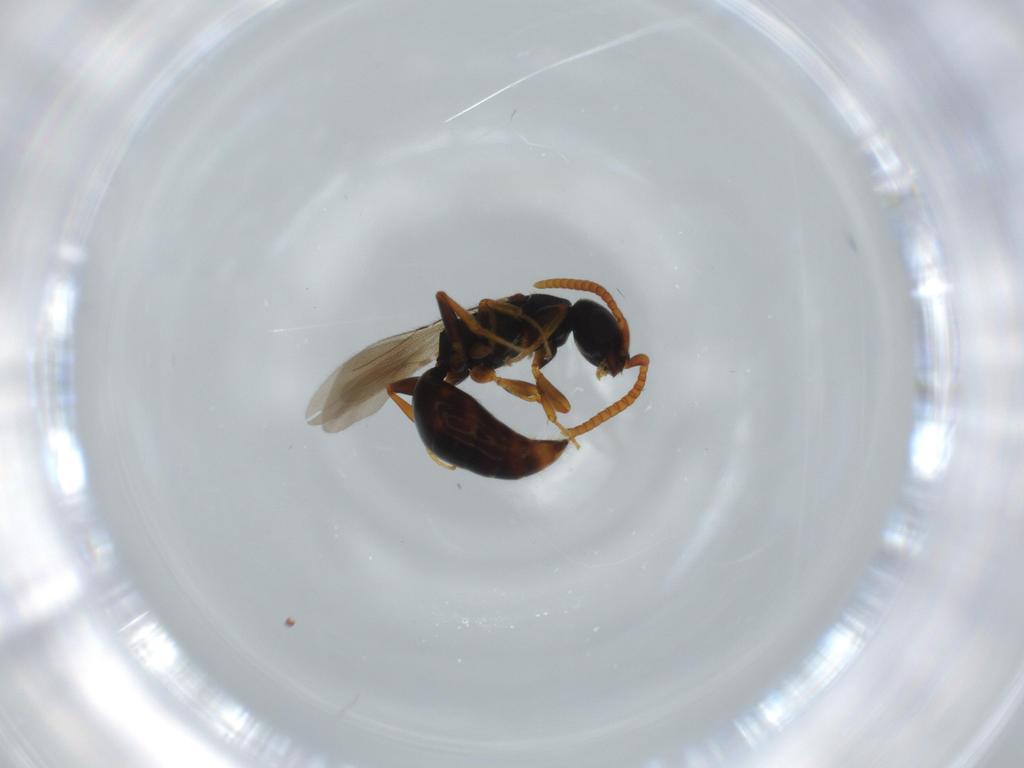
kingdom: Animalia
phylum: Arthropoda
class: Insecta
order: Hymenoptera
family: Bethylidae
